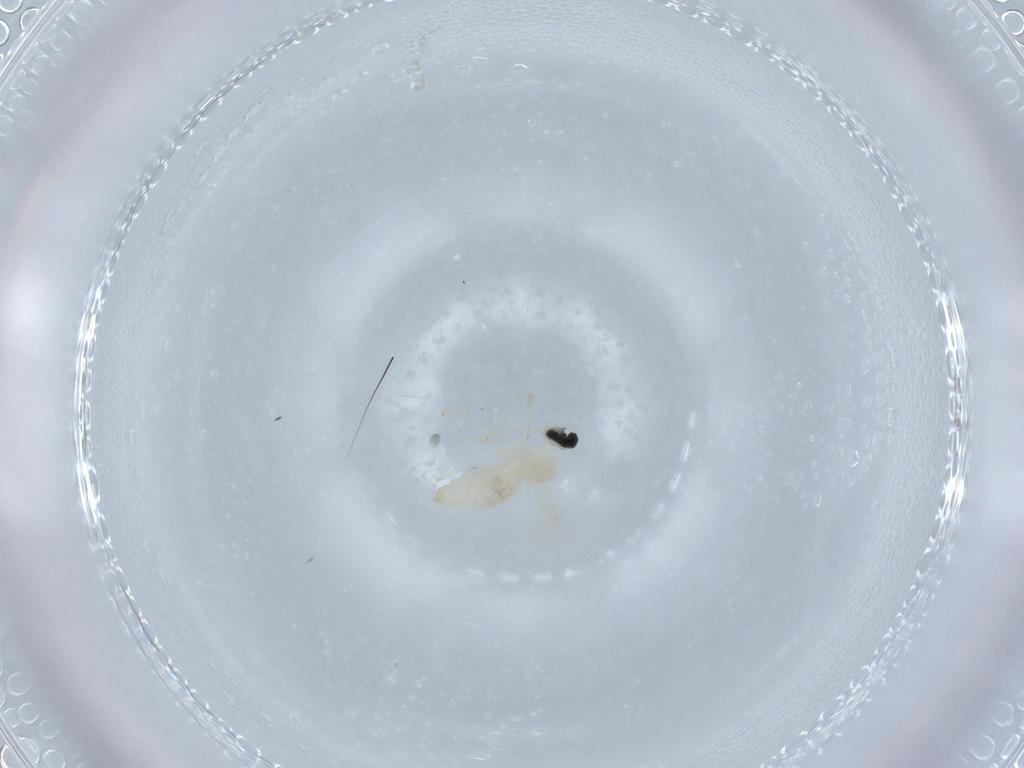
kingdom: Animalia
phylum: Arthropoda
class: Insecta
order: Diptera
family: Cecidomyiidae
